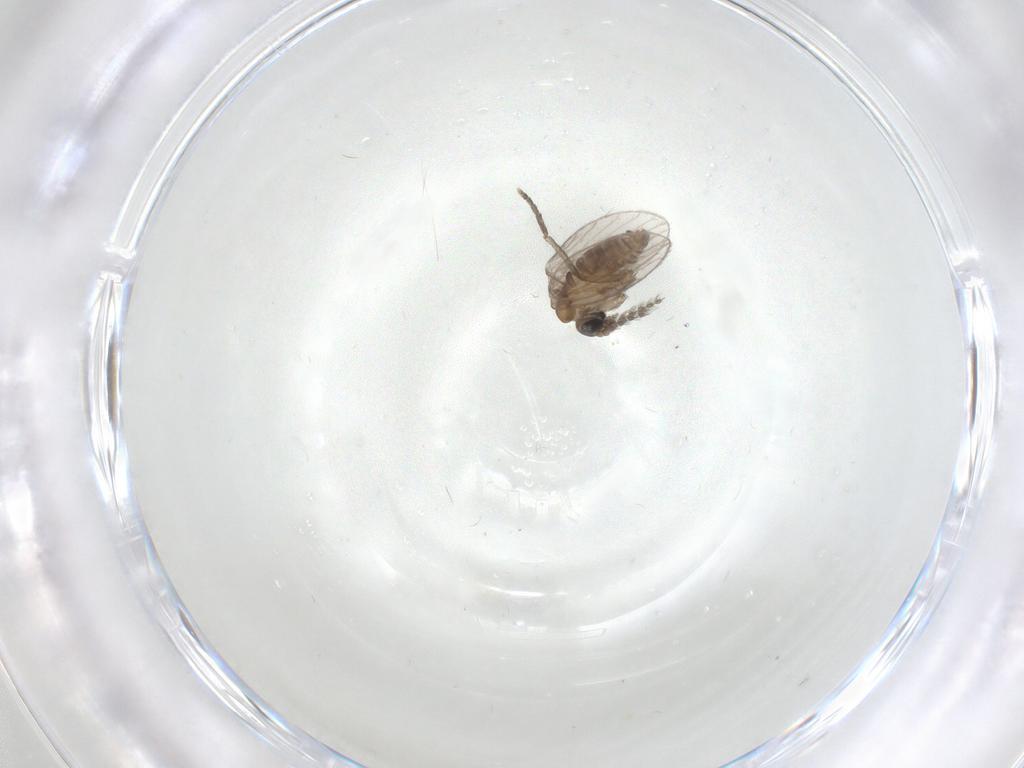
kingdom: Animalia
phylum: Arthropoda
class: Insecta
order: Diptera
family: Psychodidae
